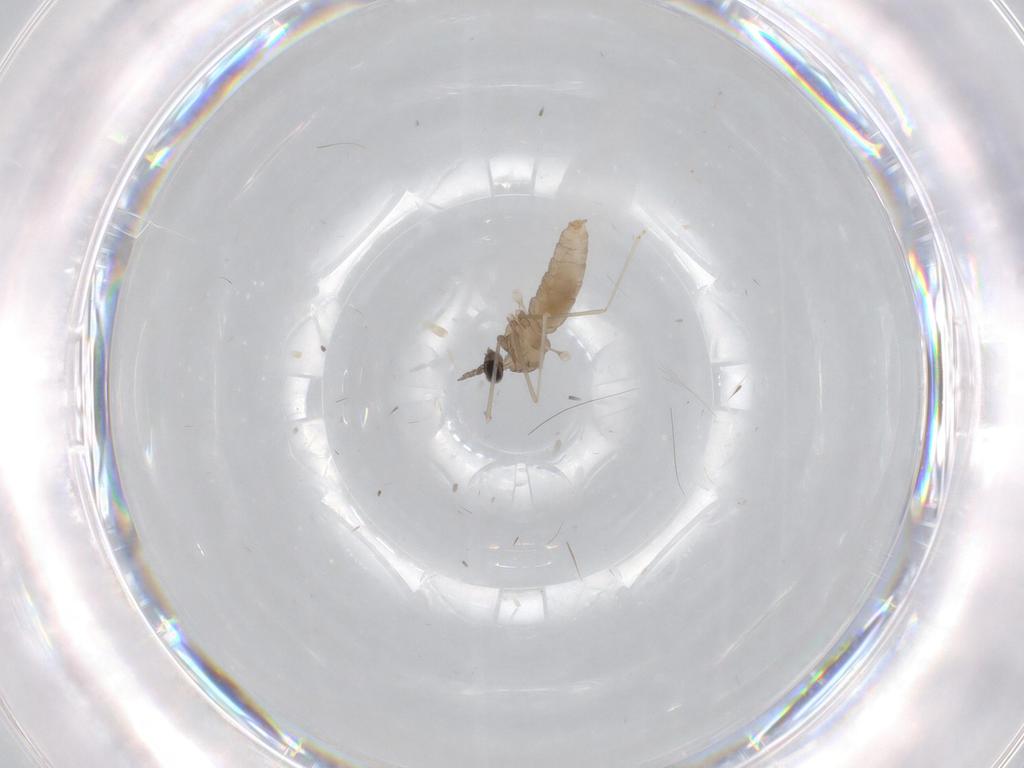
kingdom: Animalia
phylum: Arthropoda
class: Insecta
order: Diptera
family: Cecidomyiidae
